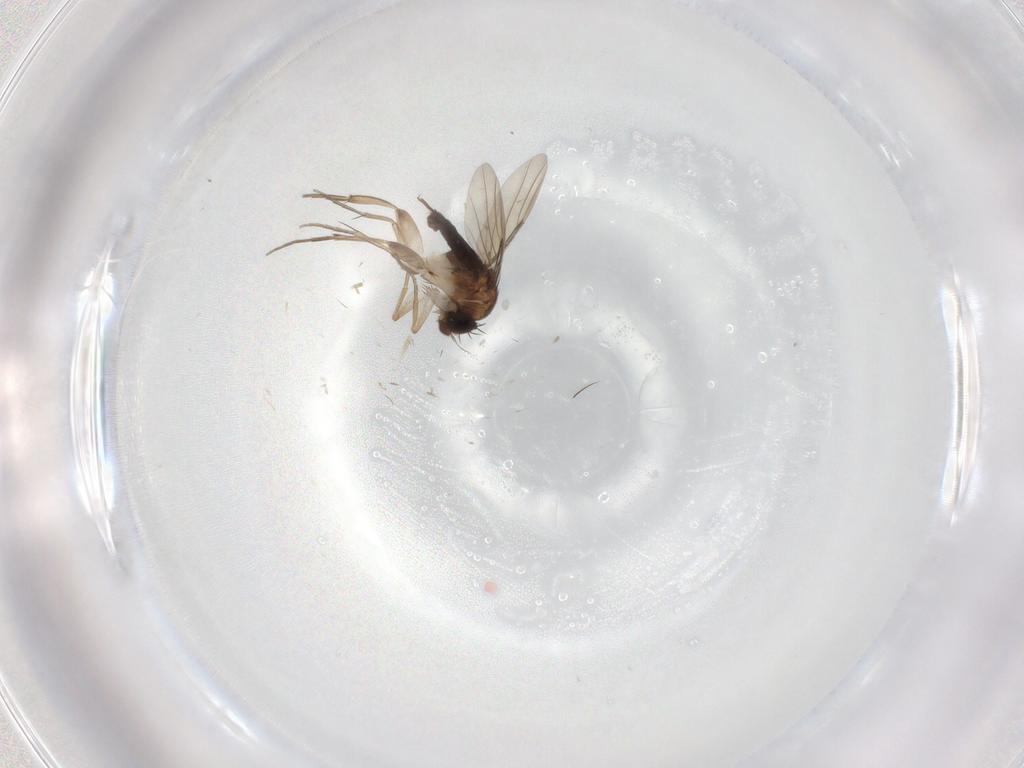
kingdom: Animalia
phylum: Arthropoda
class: Insecta
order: Diptera
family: Phoridae
